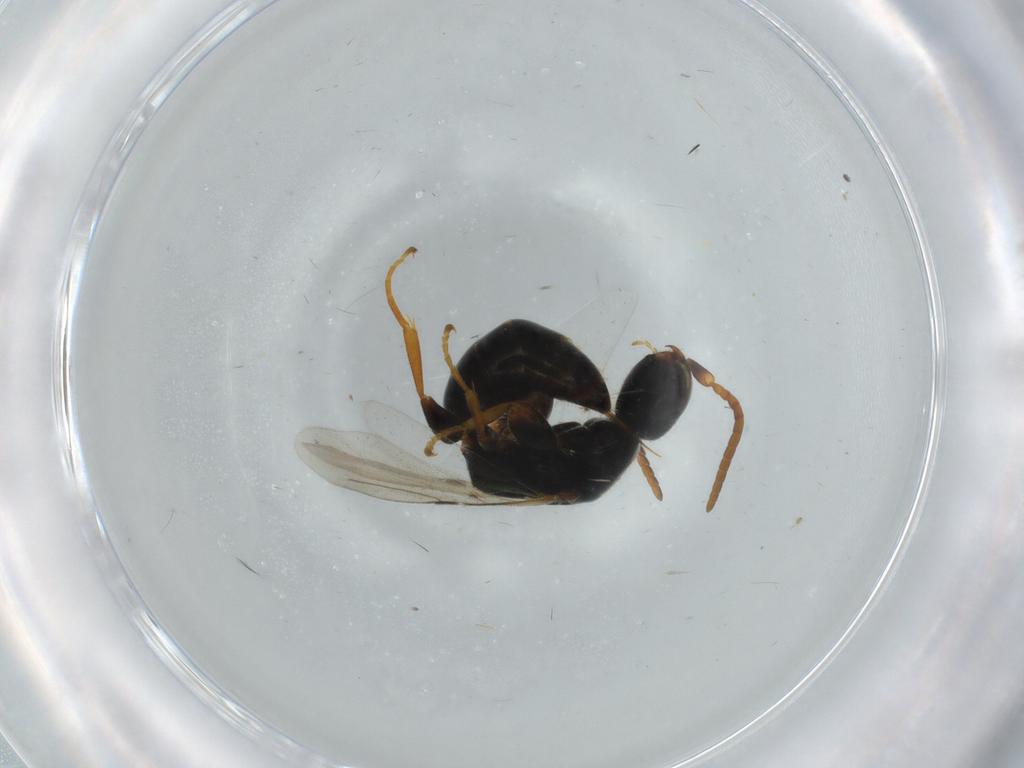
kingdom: Animalia
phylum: Arthropoda
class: Insecta
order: Hymenoptera
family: Bethylidae
